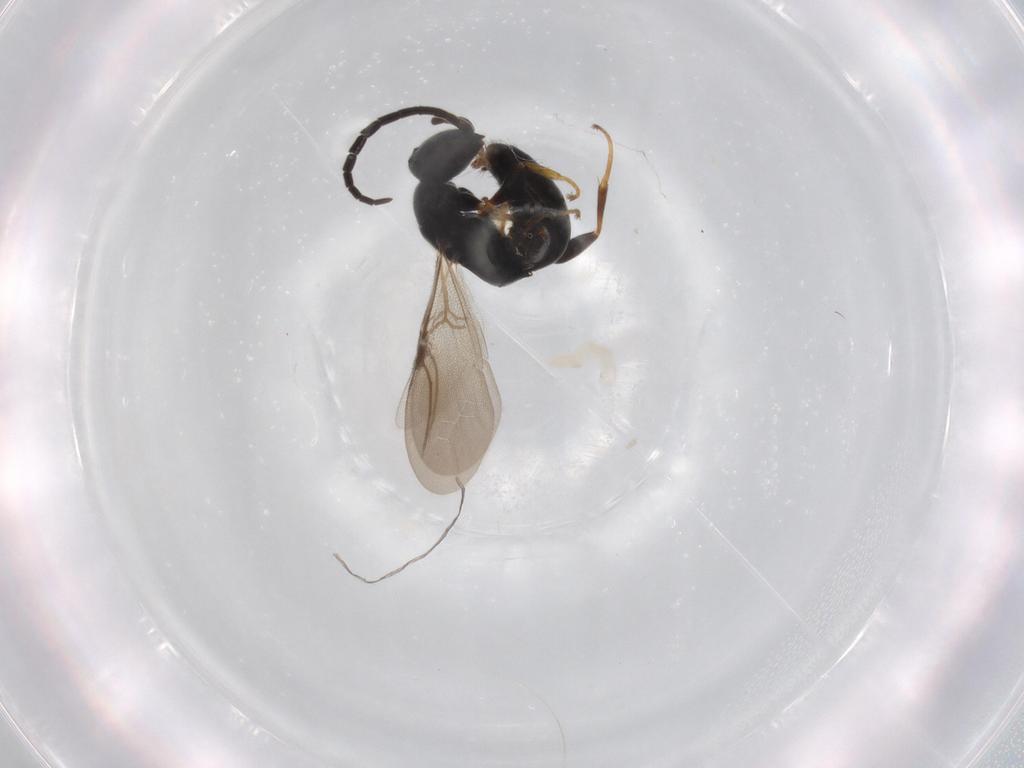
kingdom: Animalia
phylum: Arthropoda
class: Insecta
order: Hymenoptera
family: Bethylidae
